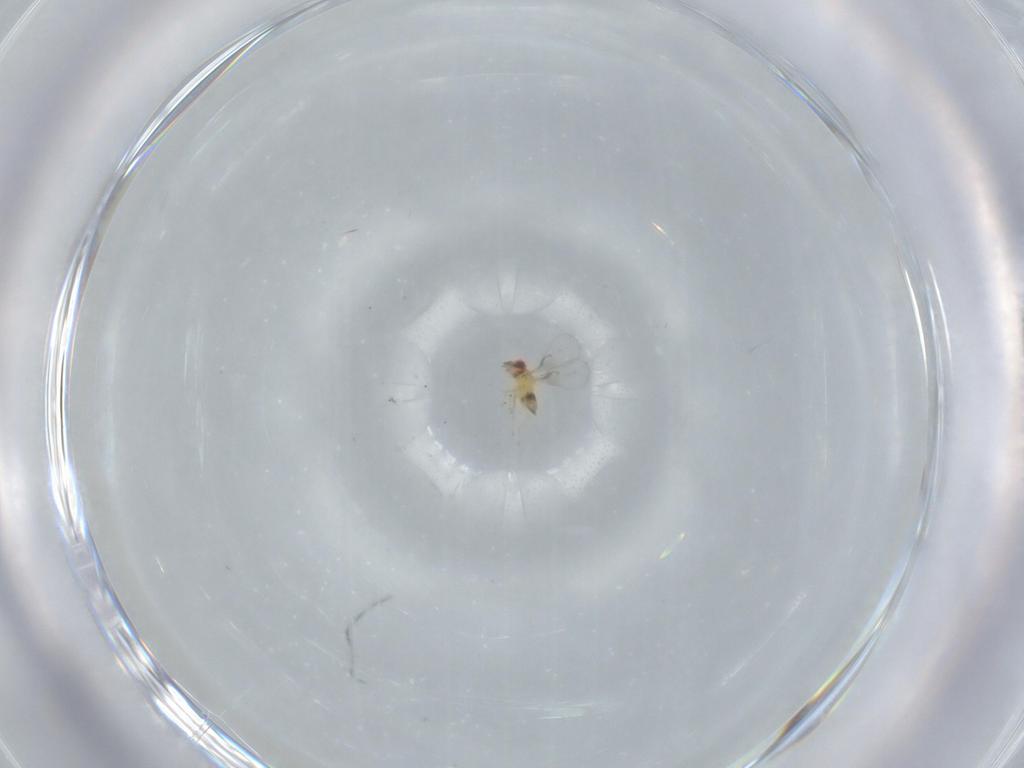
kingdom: Animalia
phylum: Arthropoda
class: Insecta
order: Hymenoptera
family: Trichogrammatidae
